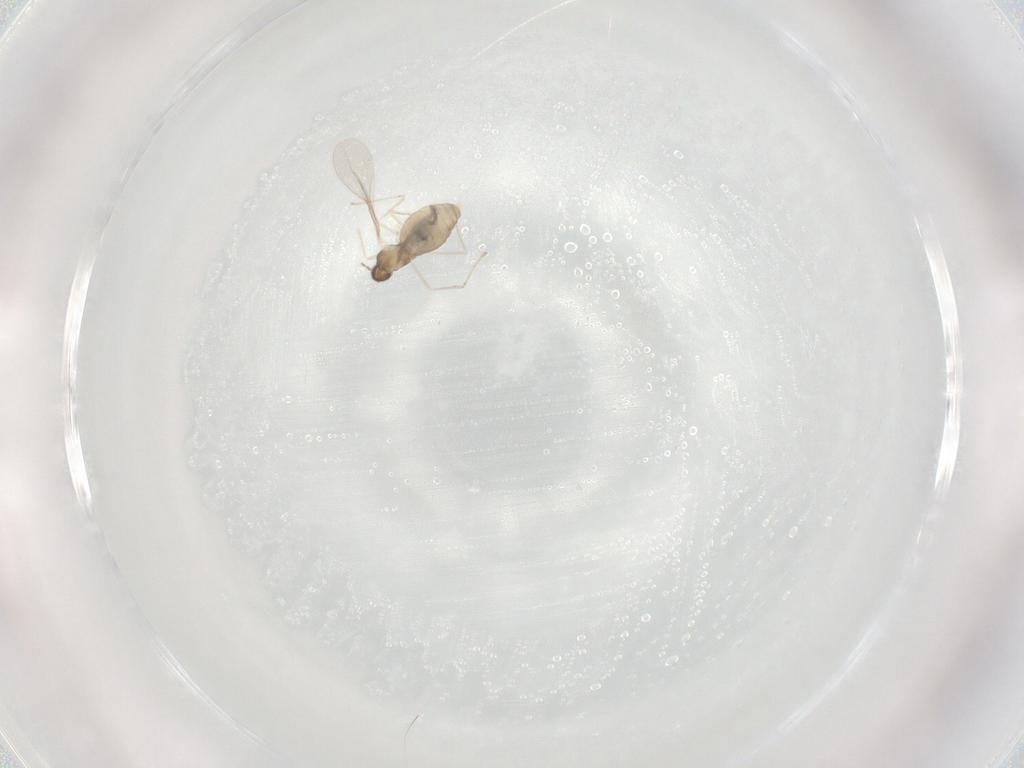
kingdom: Animalia
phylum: Arthropoda
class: Insecta
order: Diptera
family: Cecidomyiidae
